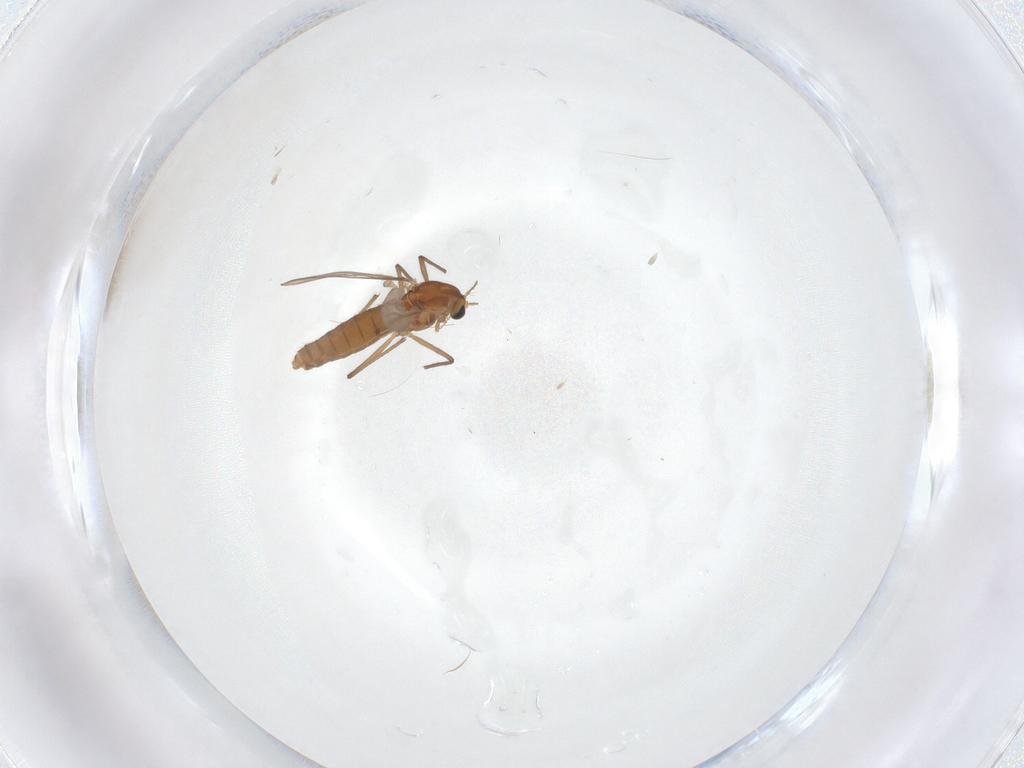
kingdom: Animalia
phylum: Arthropoda
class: Insecta
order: Diptera
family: Chironomidae
